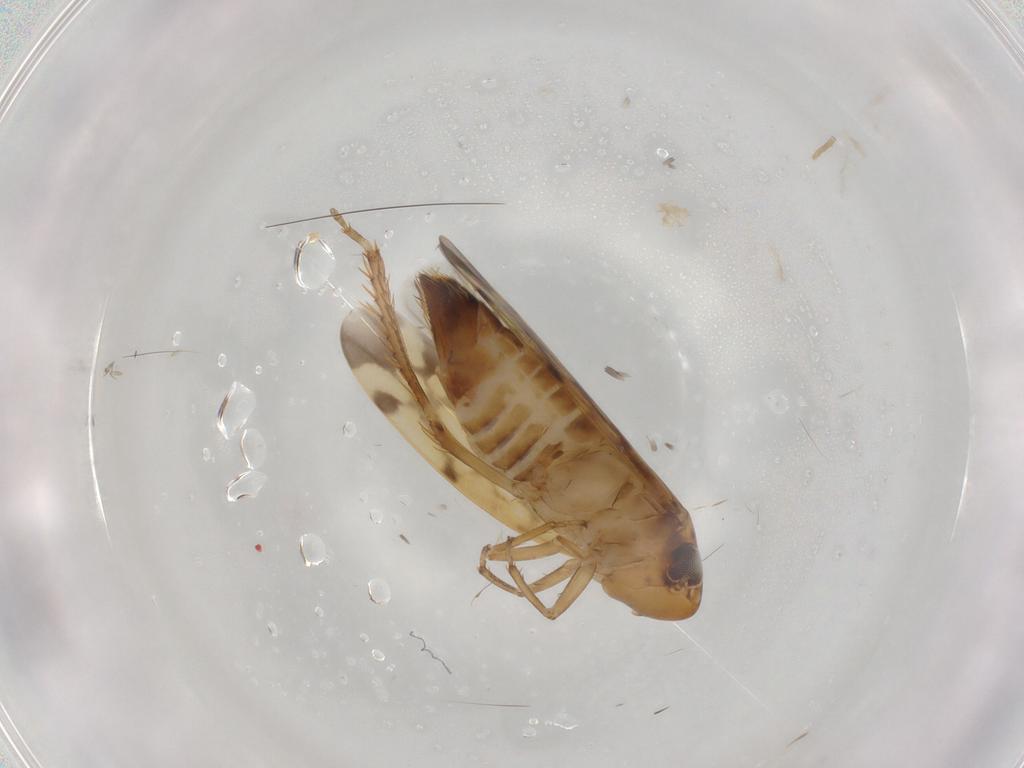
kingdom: Animalia
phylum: Arthropoda
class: Insecta
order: Hemiptera
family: Cicadellidae
